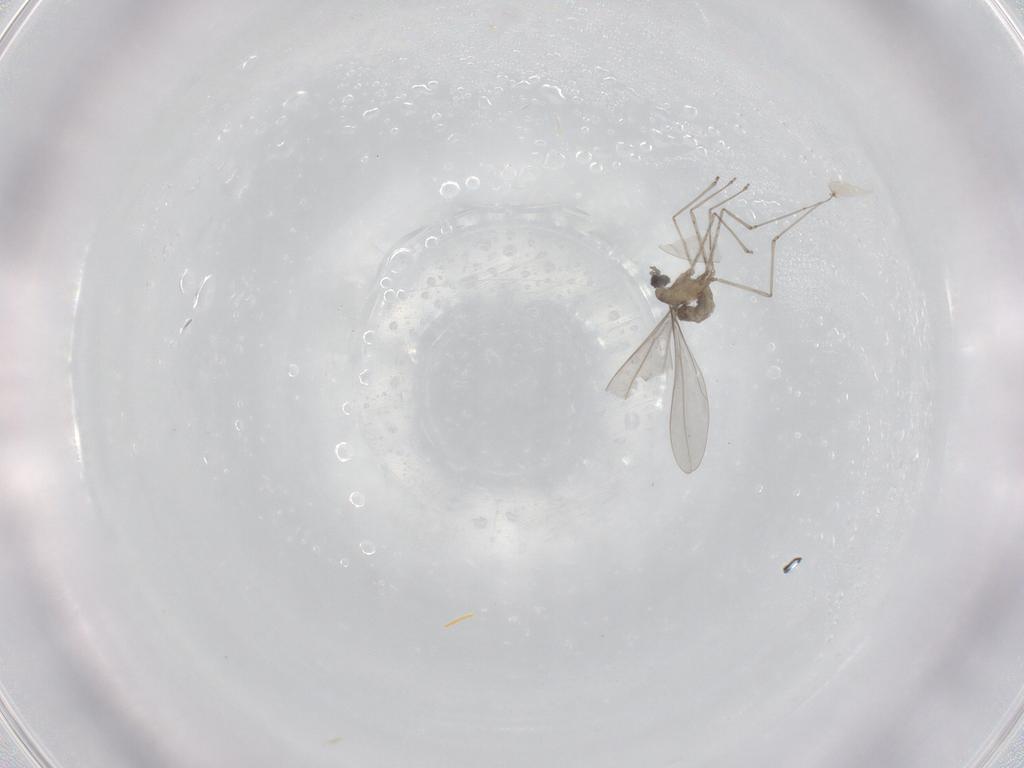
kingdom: Animalia
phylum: Arthropoda
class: Insecta
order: Diptera
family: Cecidomyiidae
